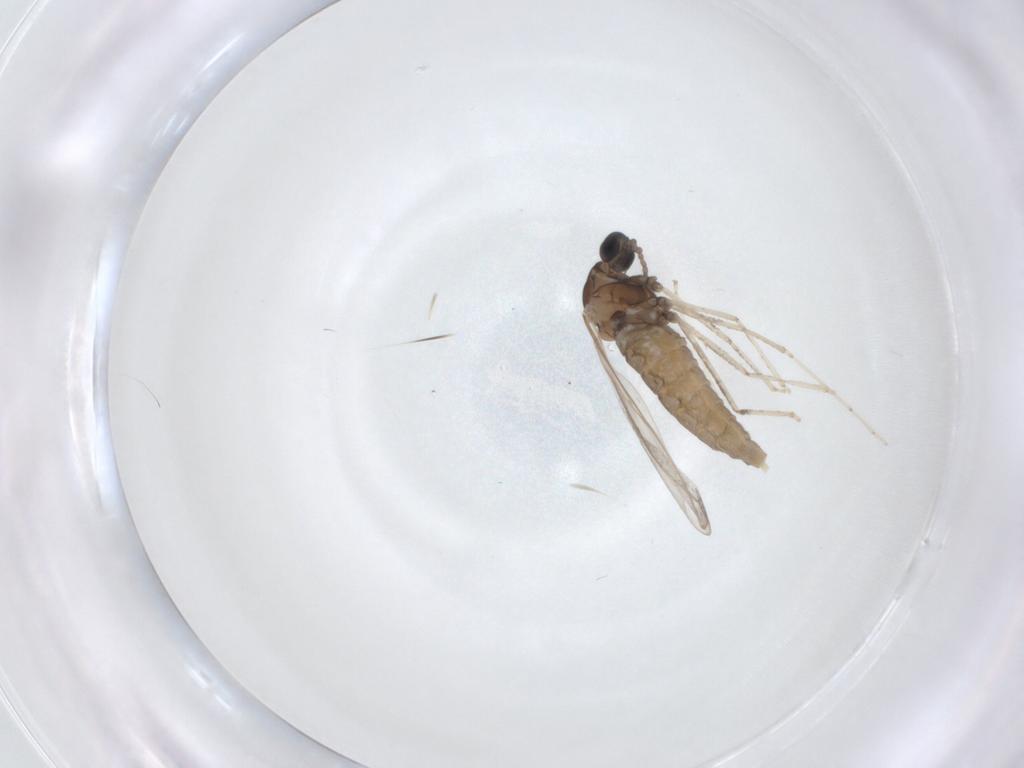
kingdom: Animalia
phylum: Arthropoda
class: Insecta
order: Diptera
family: Cecidomyiidae
